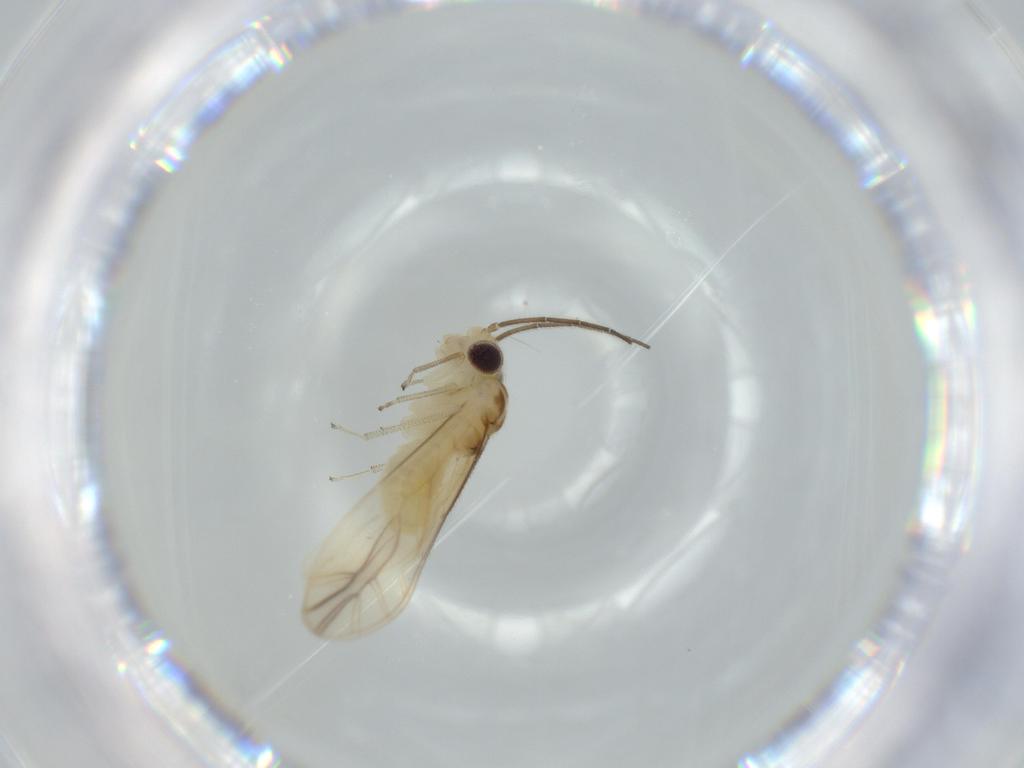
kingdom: Animalia
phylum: Arthropoda
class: Insecta
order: Psocodea
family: Caeciliusidae
